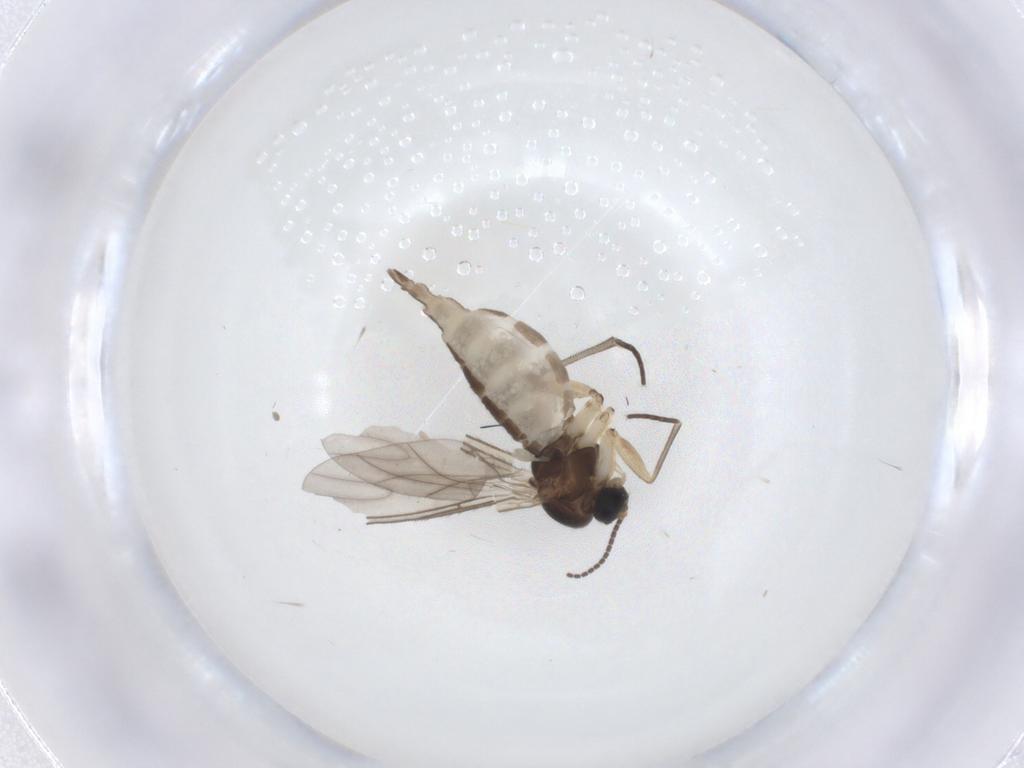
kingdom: Animalia
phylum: Arthropoda
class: Insecta
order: Diptera
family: Sciaridae
